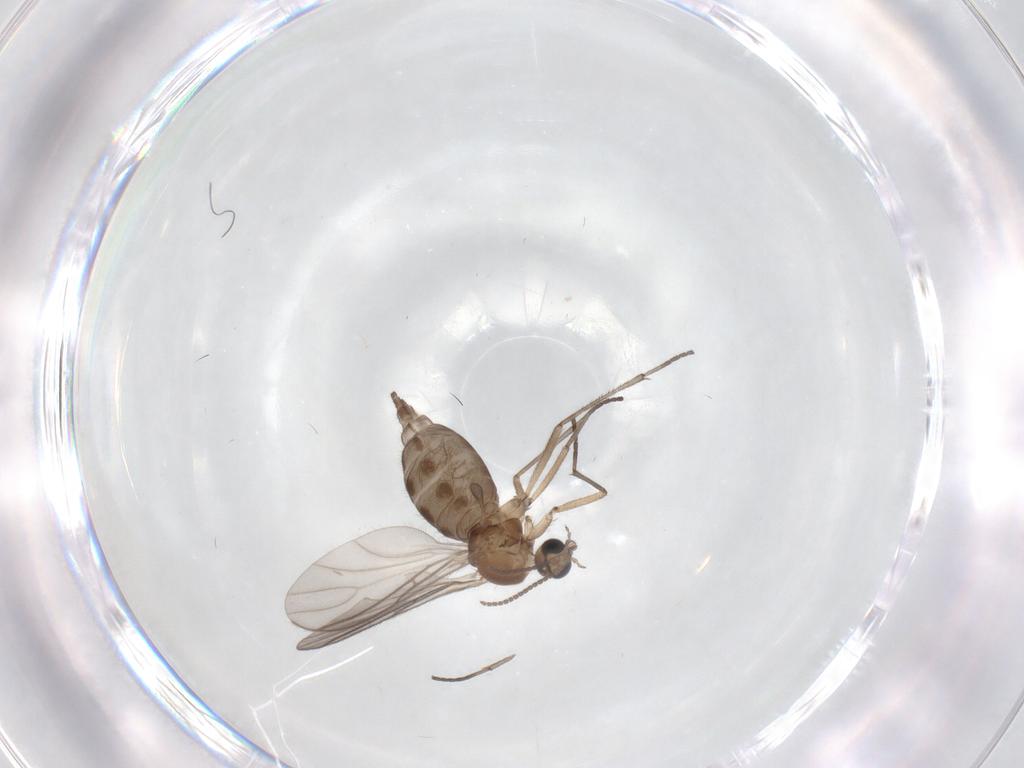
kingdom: Animalia
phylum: Arthropoda
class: Insecta
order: Diptera
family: Sciaridae
